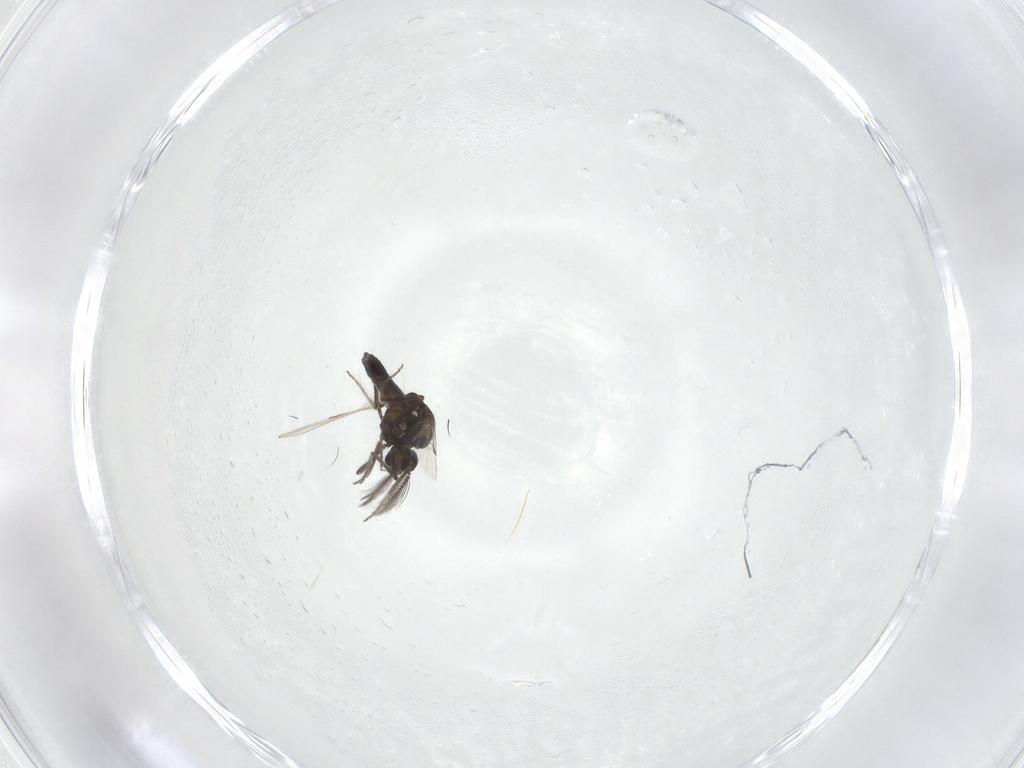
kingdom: Animalia
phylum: Arthropoda
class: Insecta
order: Diptera
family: Ceratopogonidae
